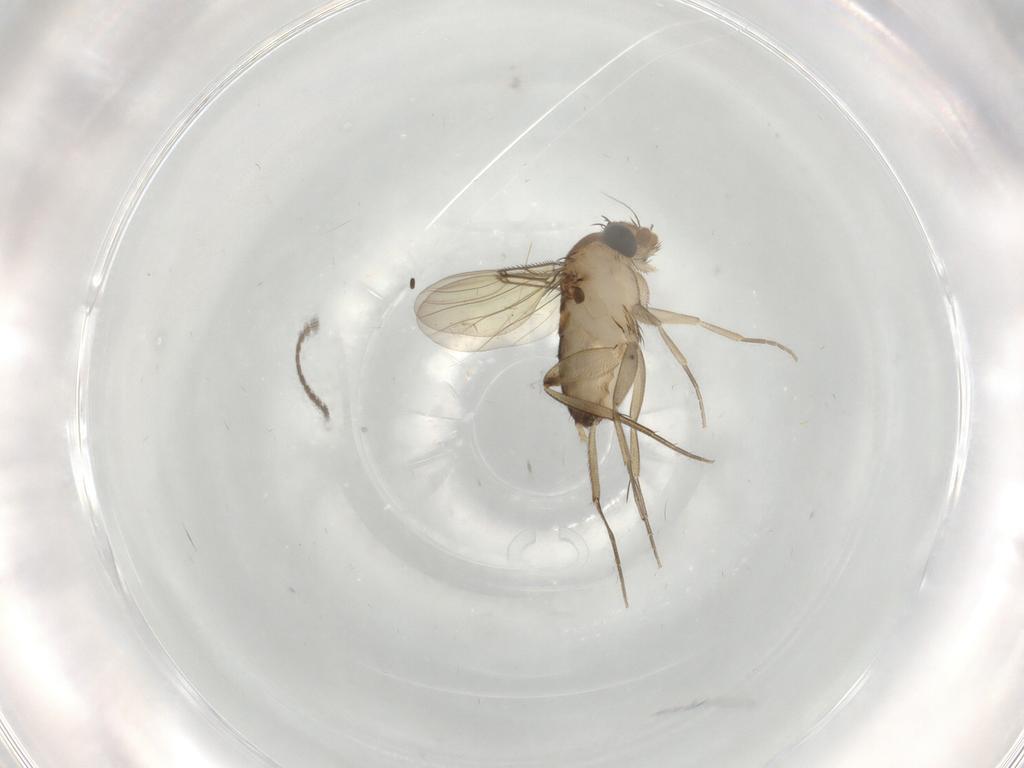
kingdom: Animalia
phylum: Arthropoda
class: Insecta
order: Diptera
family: Phoridae
